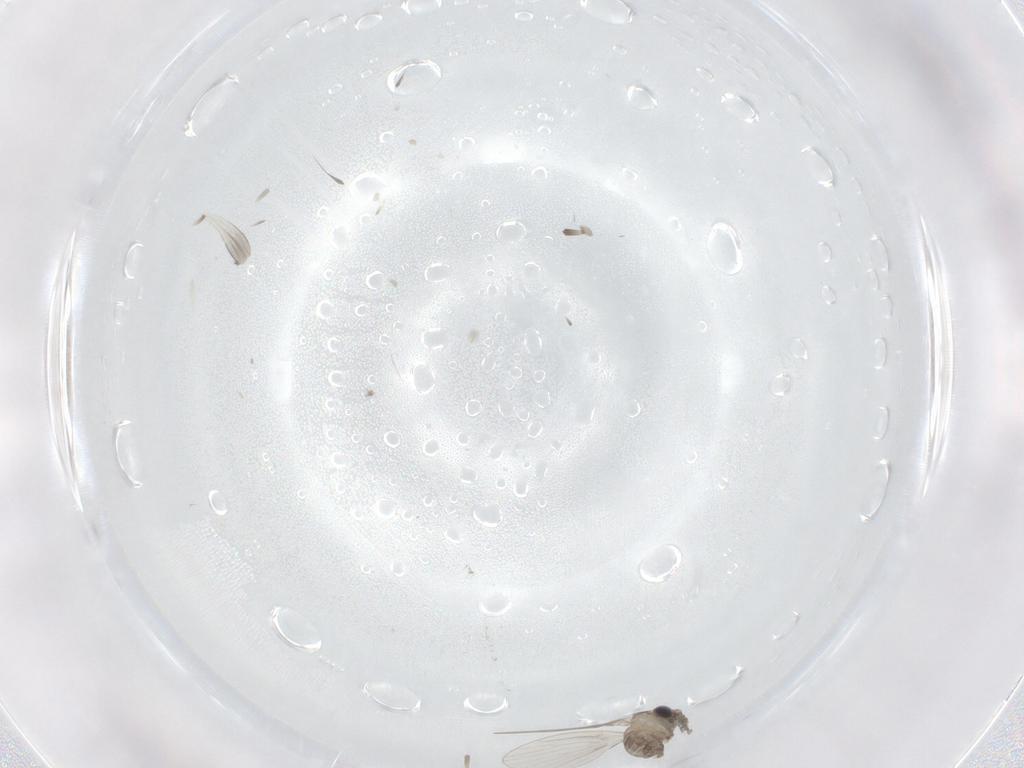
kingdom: Animalia
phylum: Arthropoda
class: Insecta
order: Diptera
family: Chironomidae
